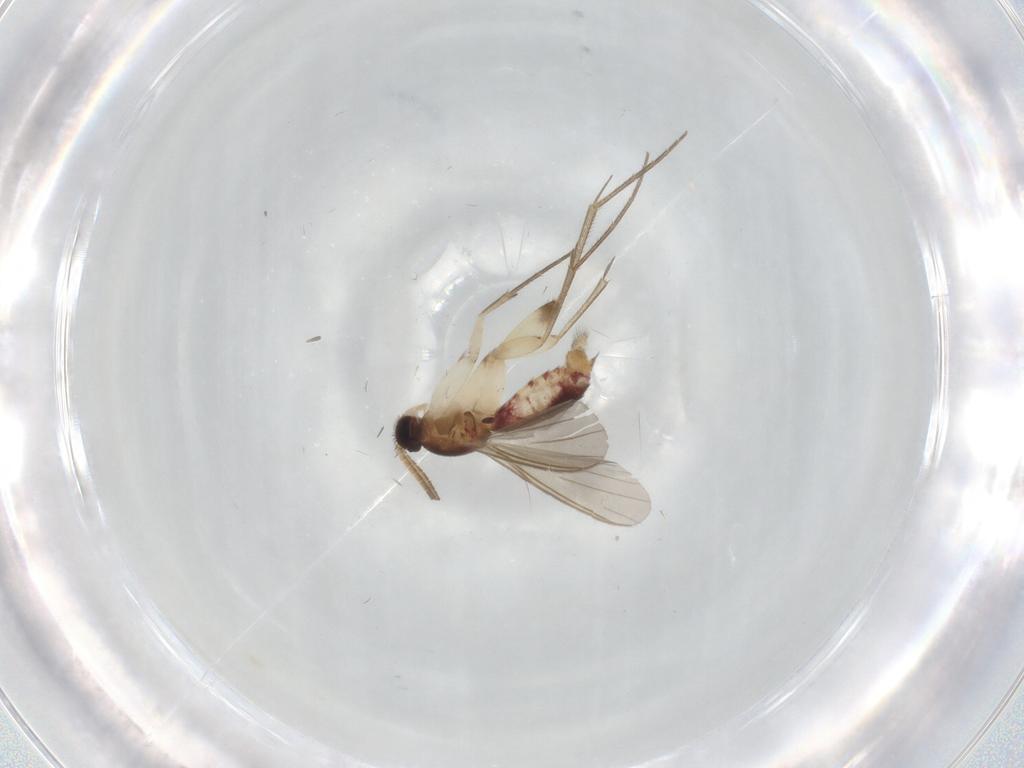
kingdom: Animalia
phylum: Arthropoda
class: Insecta
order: Diptera
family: Mycetophilidae
